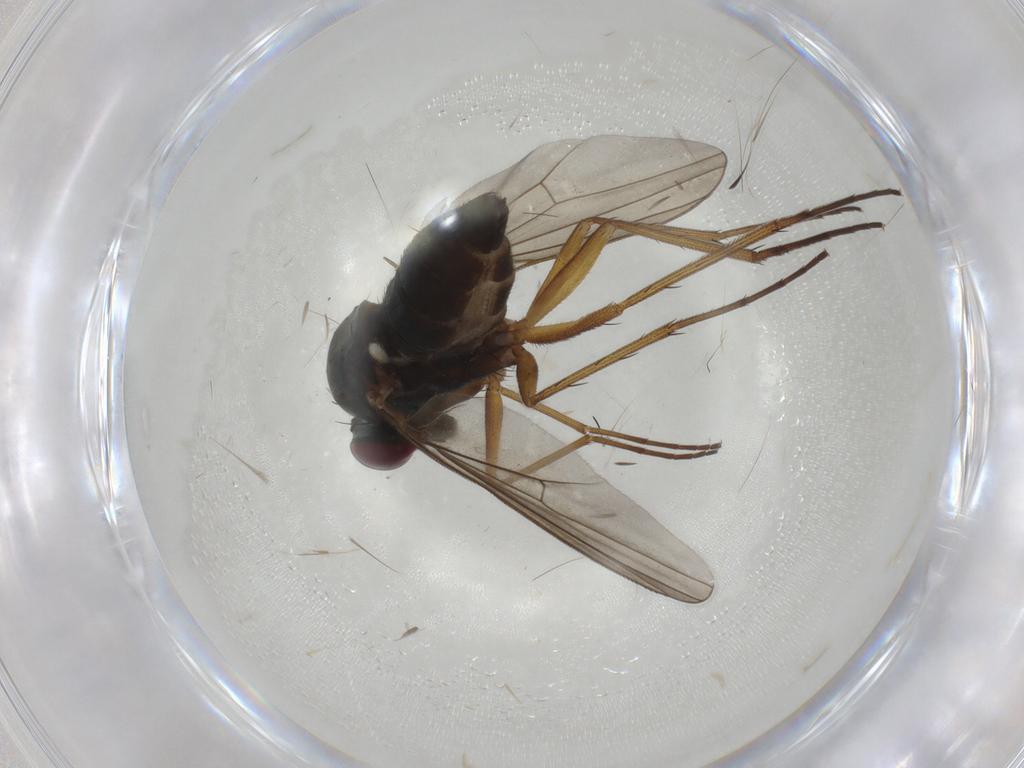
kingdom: Animalia
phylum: Arthropoda
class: Insecta
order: Diptera
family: Dolichopodidae
